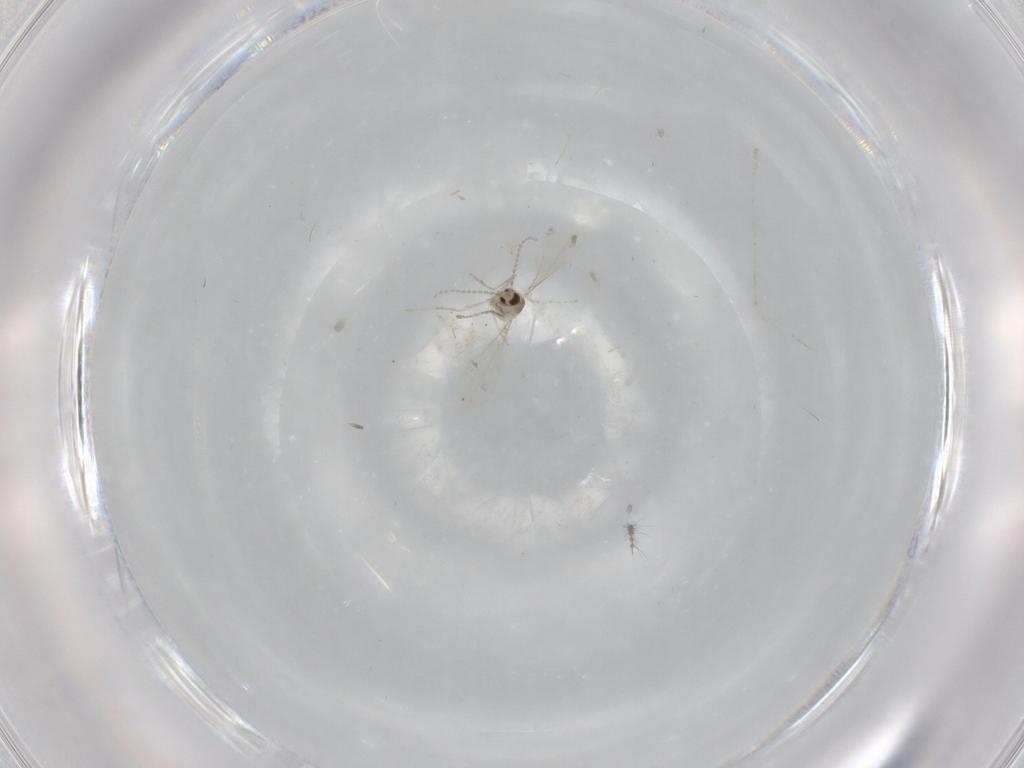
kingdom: Animalia
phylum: Arthropoda
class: Insecta
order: Diptera
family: Cecidomyiidae
